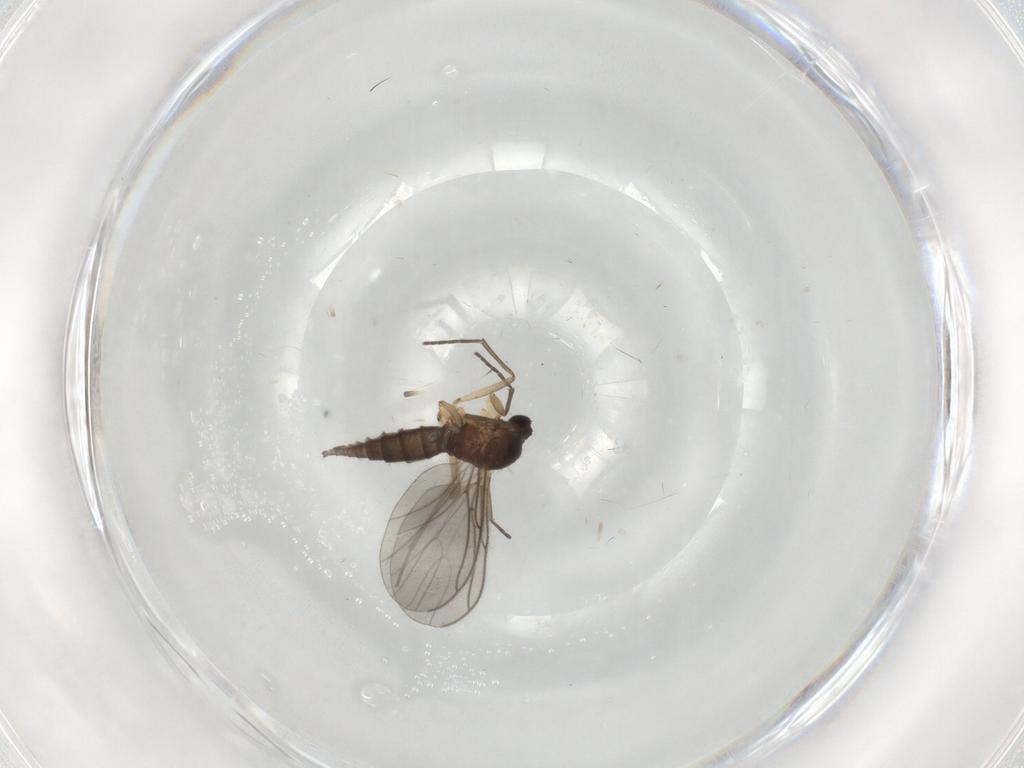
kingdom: Animalia
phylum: Arthropoda
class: Insecta
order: Diptera
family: Sciaridae
